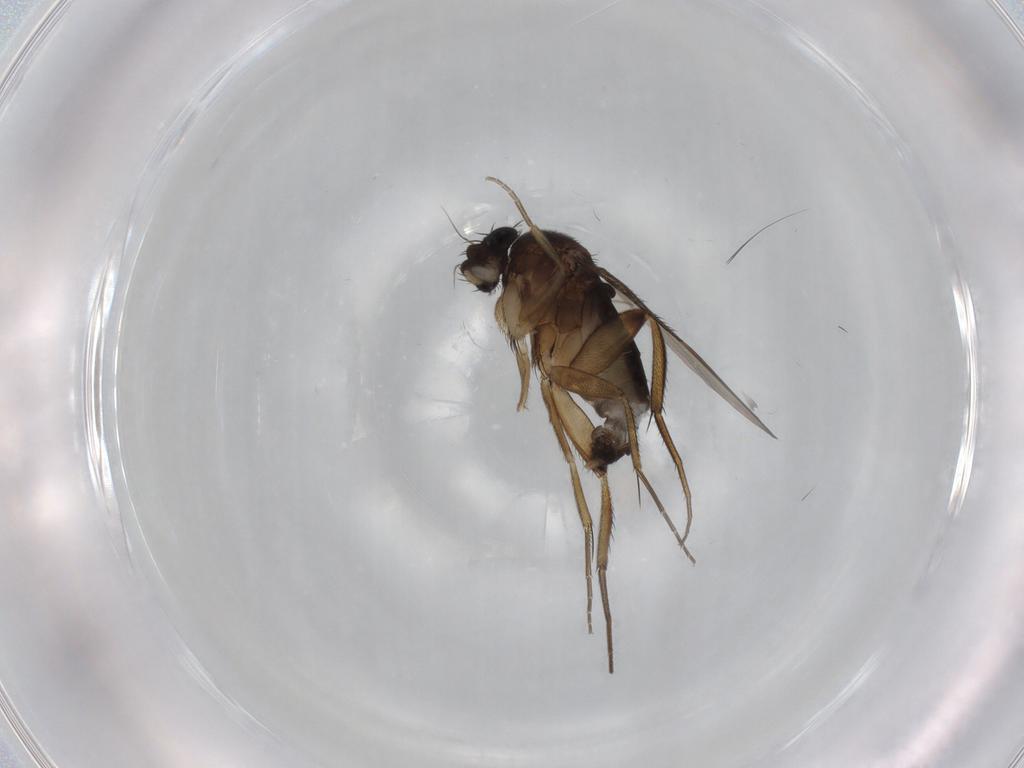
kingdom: Animalia
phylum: Arthropoda
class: Insecta
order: Diptera
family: Phoridae
